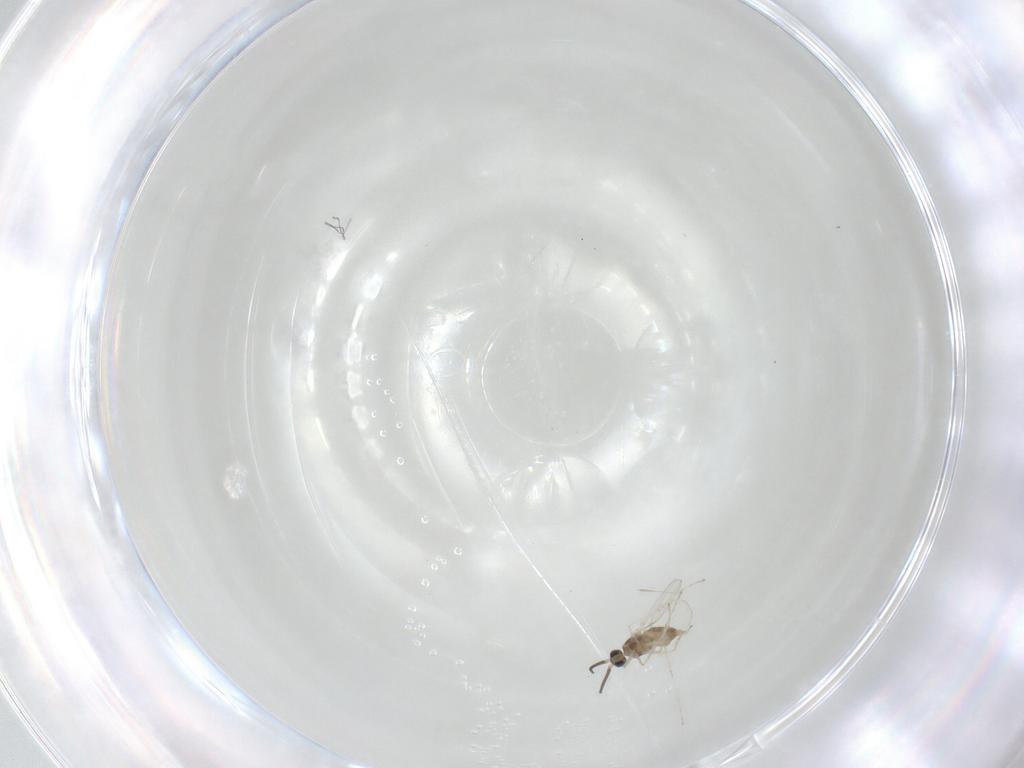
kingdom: Animalia
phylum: Arthropoda
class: Insecta
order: Diptera
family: Cecidomyiidae
